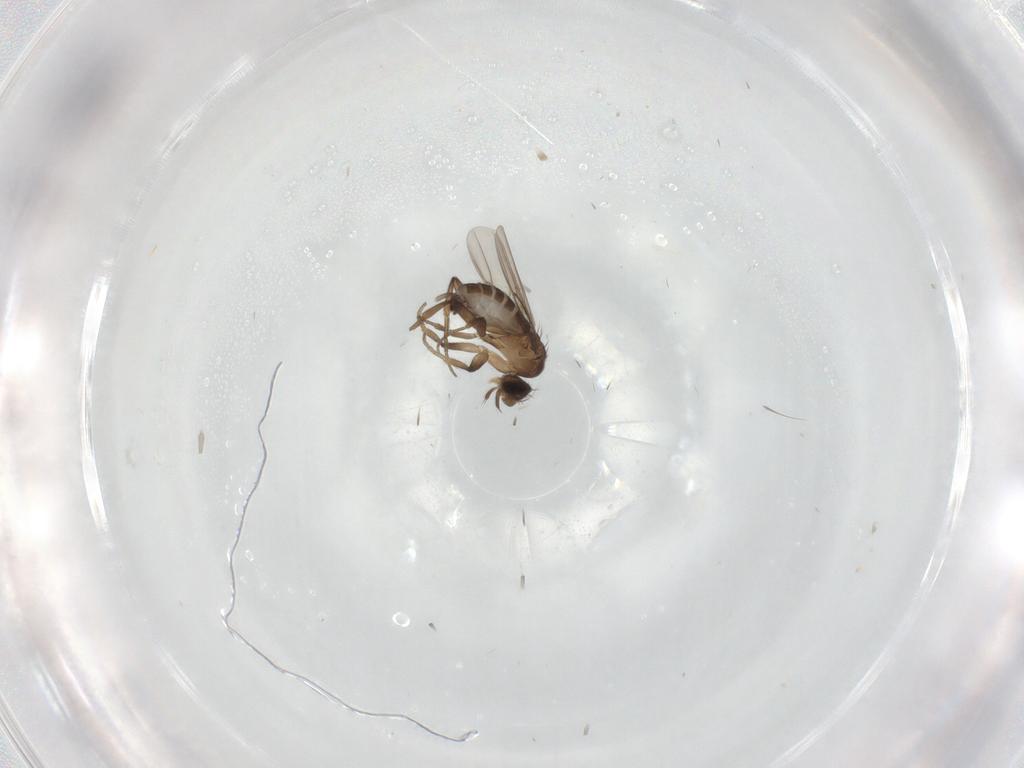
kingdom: Animalia
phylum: Arthropoda
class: Insecta
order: Diptera
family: Phoridae
